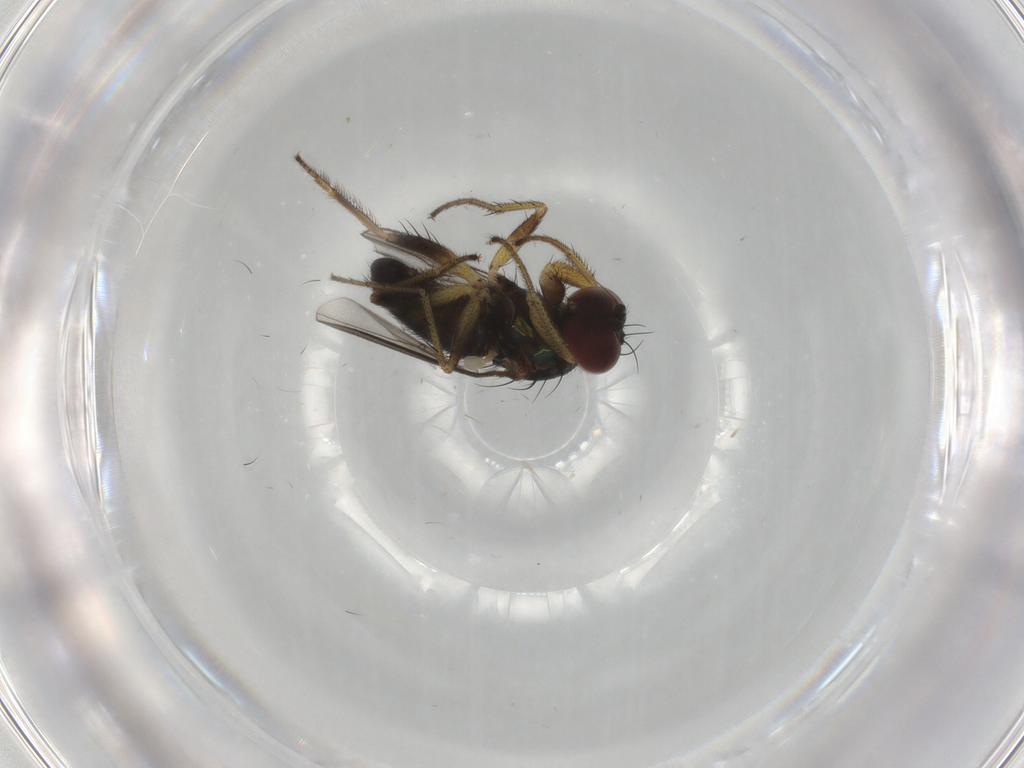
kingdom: Animalia
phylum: Arthropoda
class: Insecta
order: Diptera
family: Dolichopodidae
